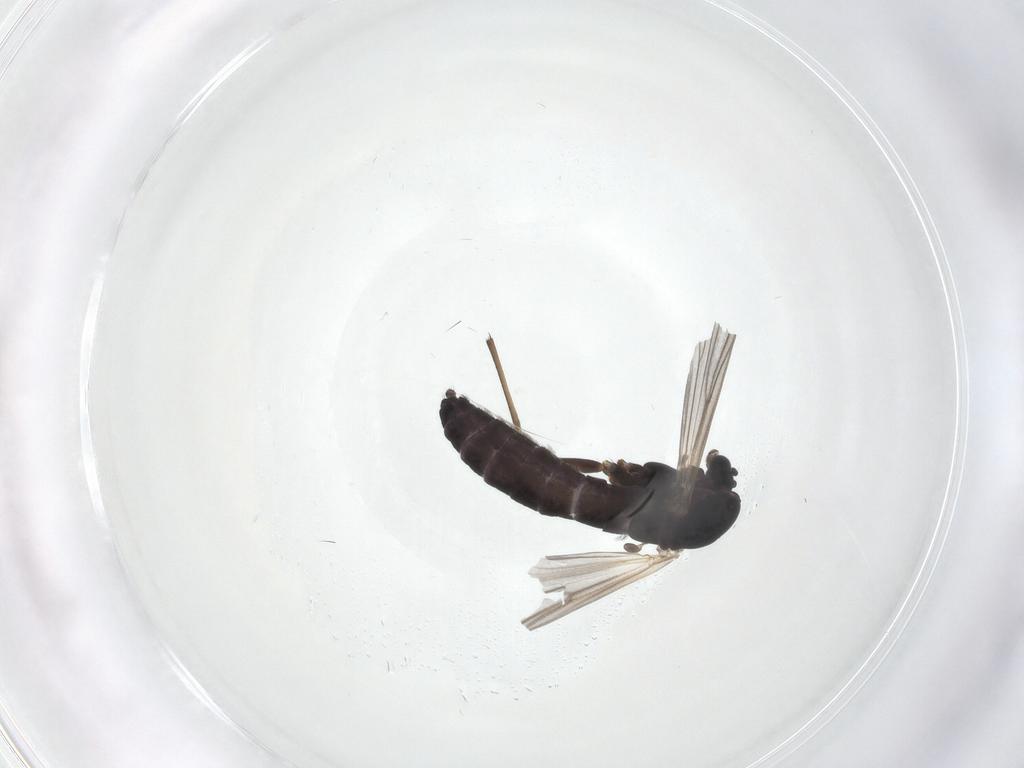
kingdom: Animalia
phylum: Arthropoda
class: Insecta
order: Diptera
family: Chironomidae
